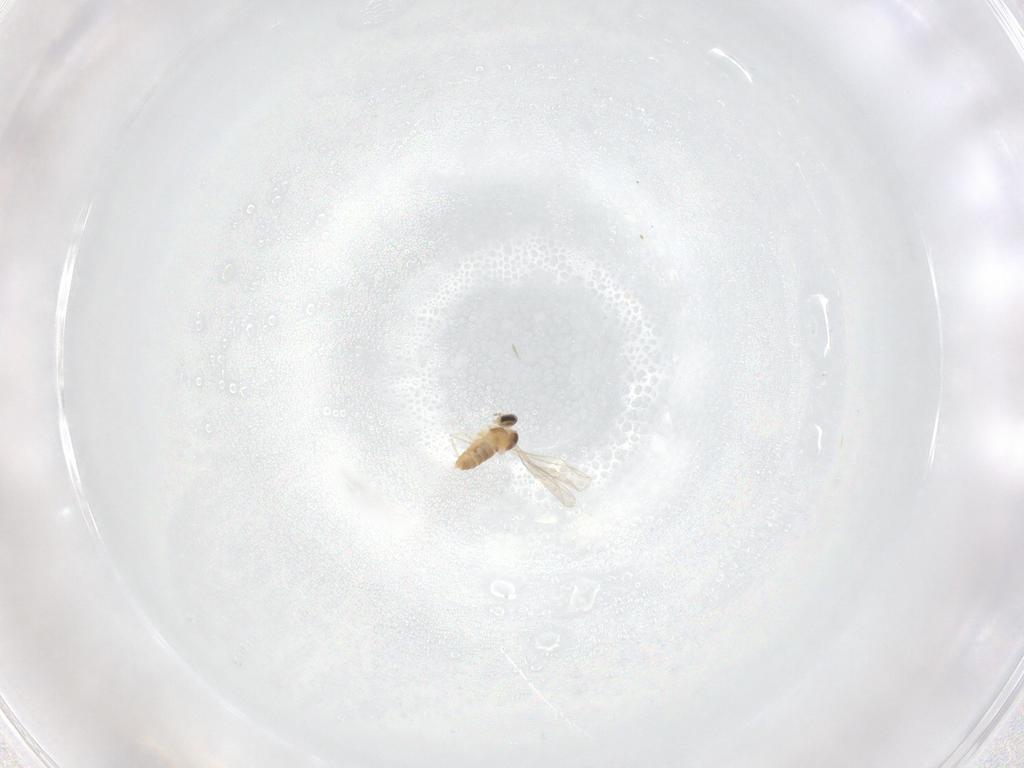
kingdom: Animalia
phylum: Arthropoda
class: Insecta
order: Diptera
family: Cecidomyiidae
